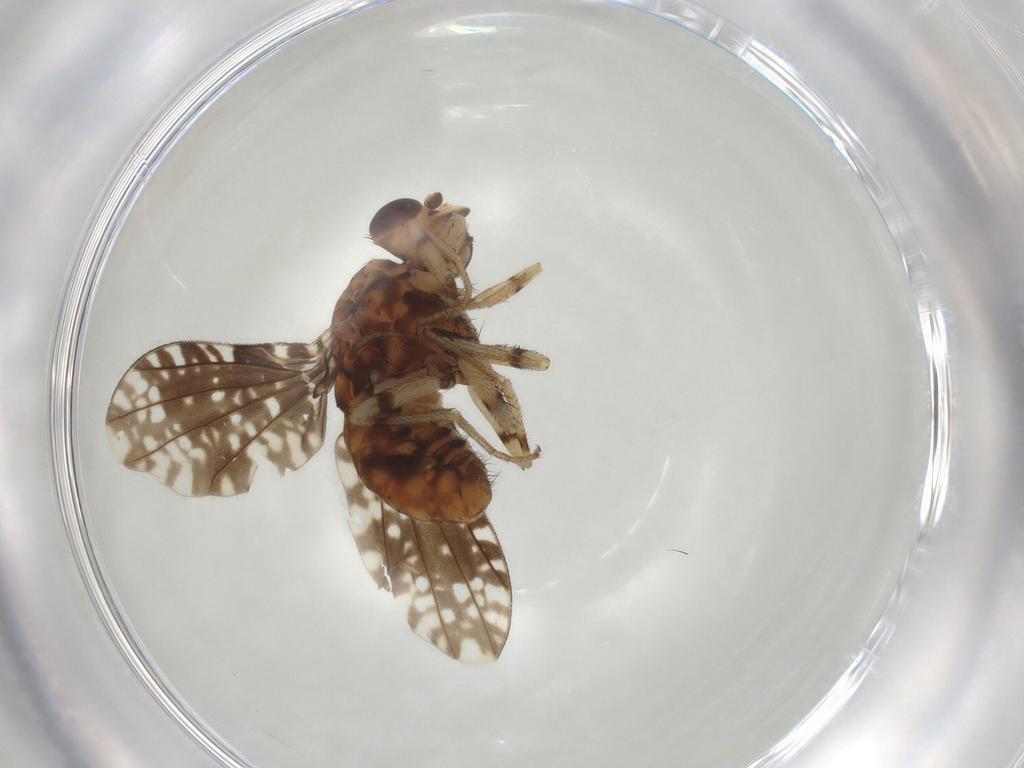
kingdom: Animalia
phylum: Arthropoda
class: Insecta
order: Diptera
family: Lauxaniidae
